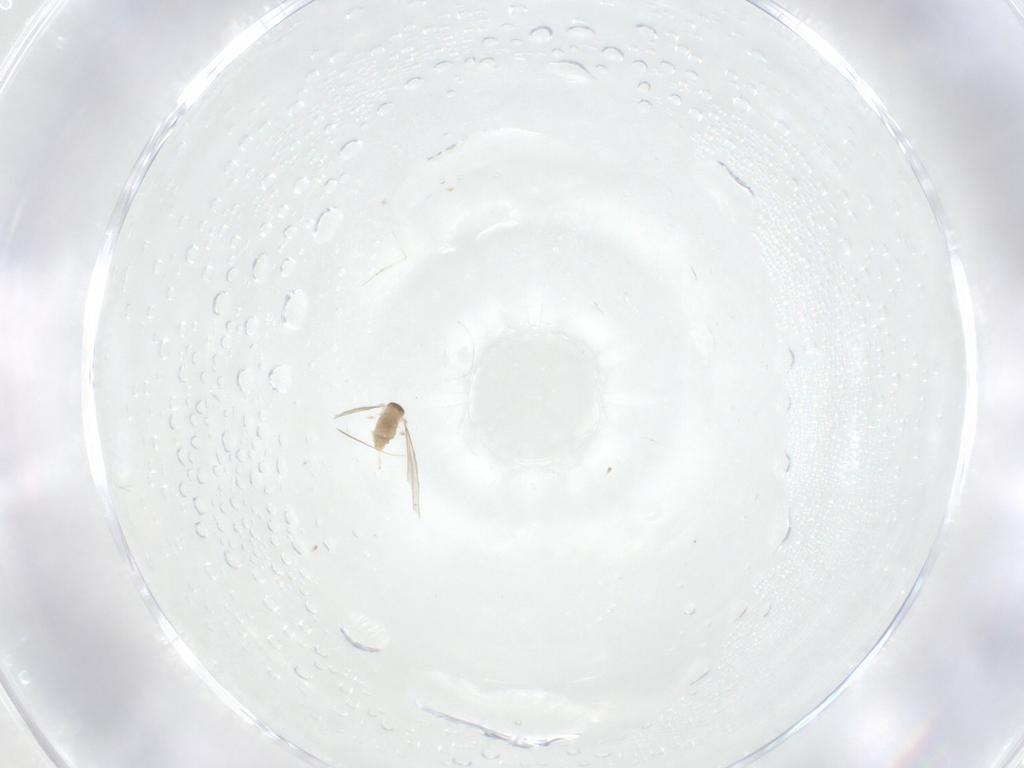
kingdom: Animalia
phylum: Arthropoda
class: Insecta
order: Diptera
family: Cecidomyiidae
